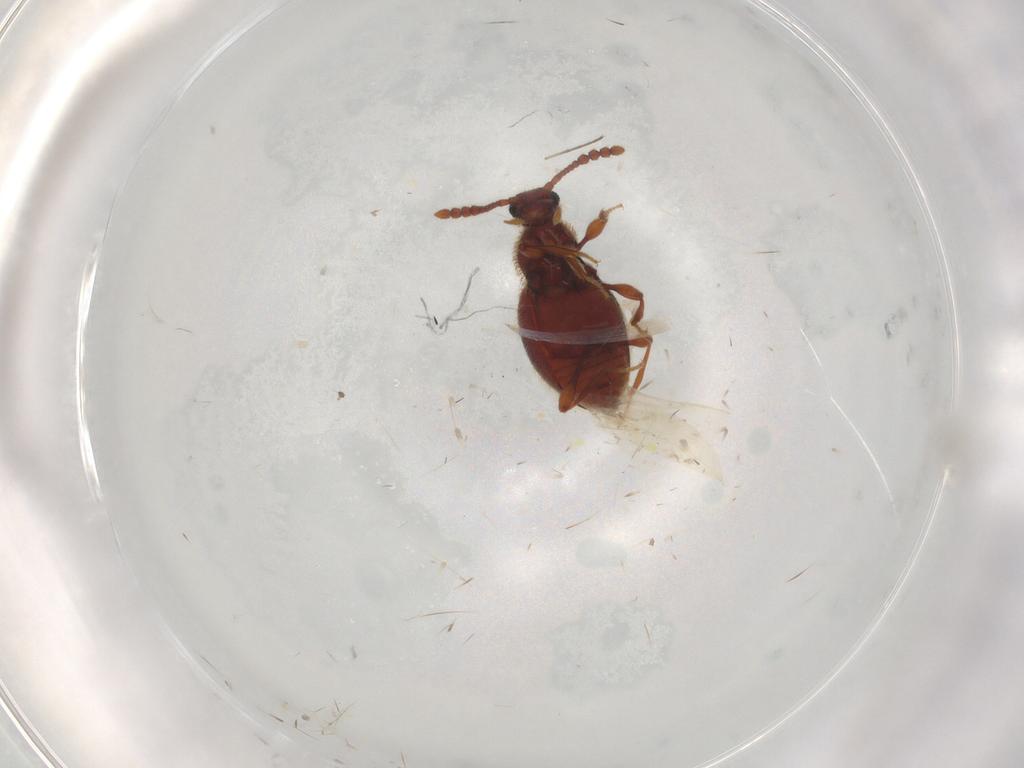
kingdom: Animalia
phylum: Arthropoda
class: Insecta
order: Coleoptera
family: Staphylinidae
